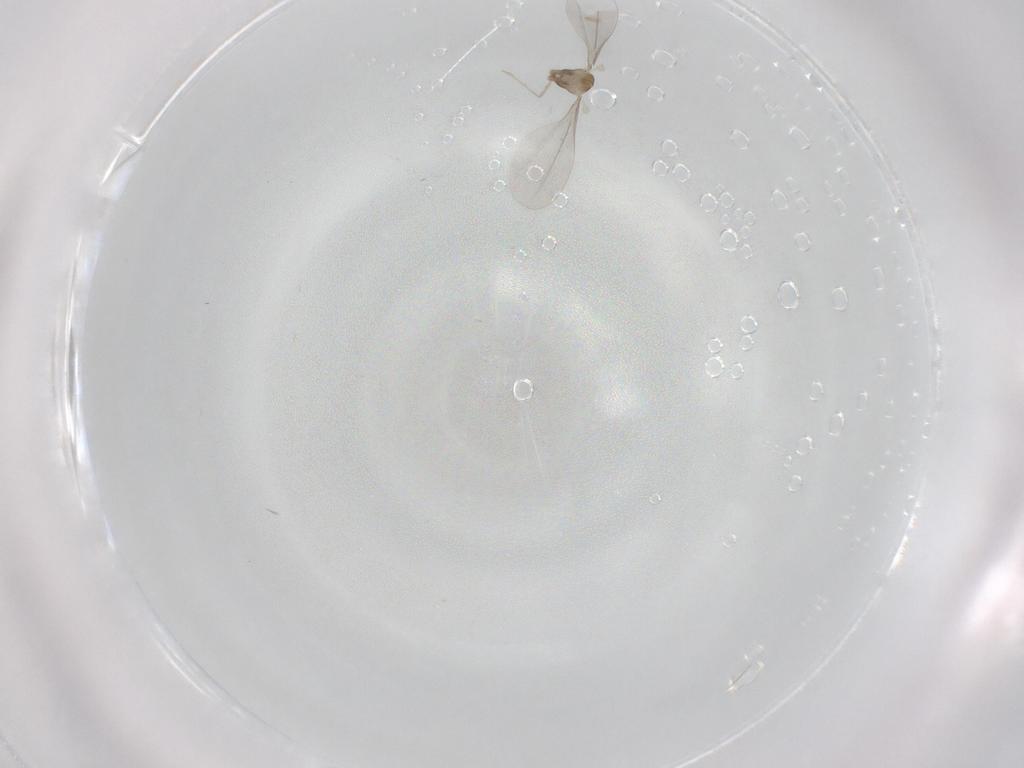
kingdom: Animalia
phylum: Arthropoda
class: Insecta
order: Diptera
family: Cecidomyiidae
